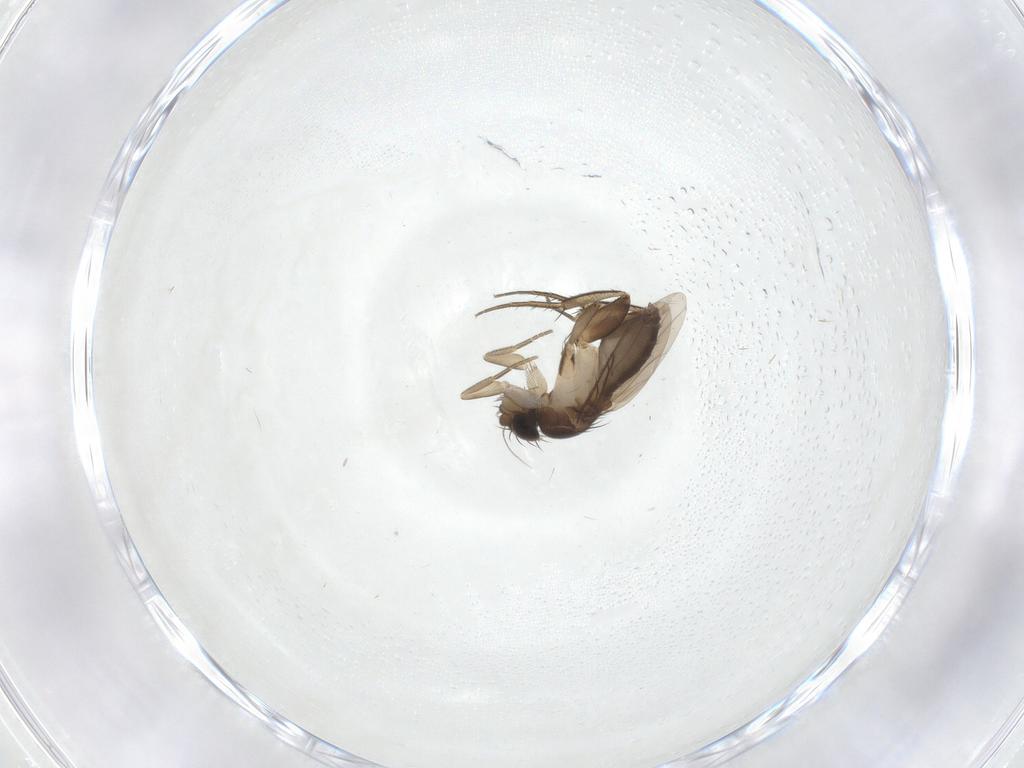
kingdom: Animalia
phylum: Arthropoda
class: Insecta
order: Diptera
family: Phoridae
